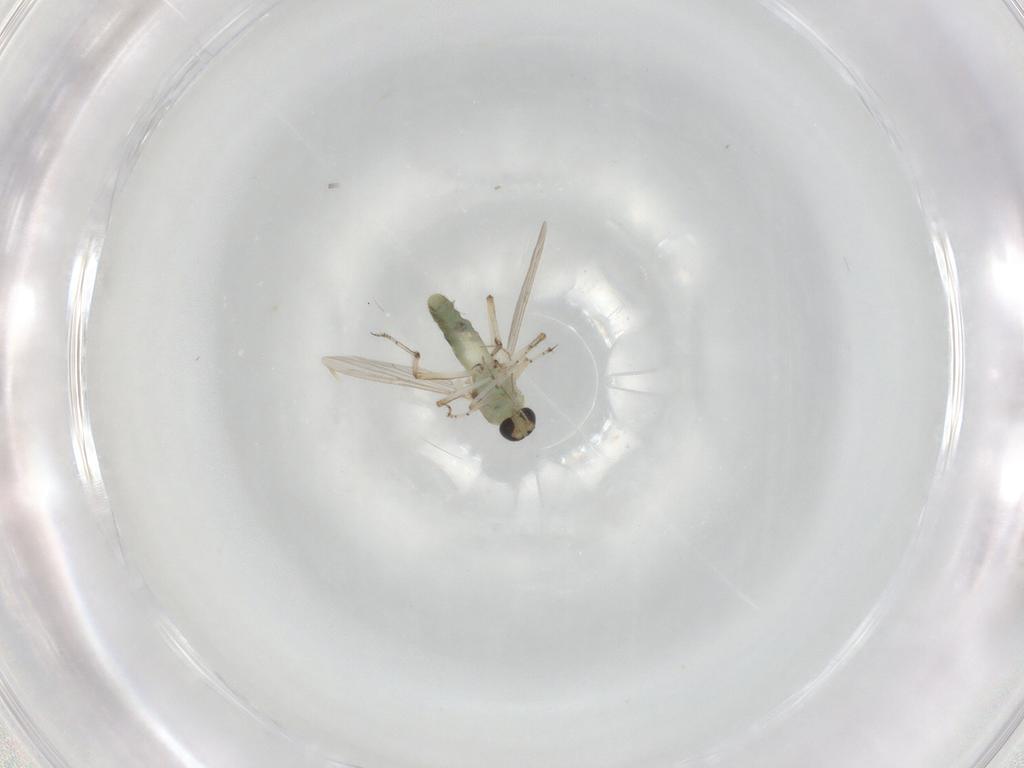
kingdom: Animalia
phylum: Arthropoda
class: Insecta
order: Diptera
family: Ceratopogonidae
